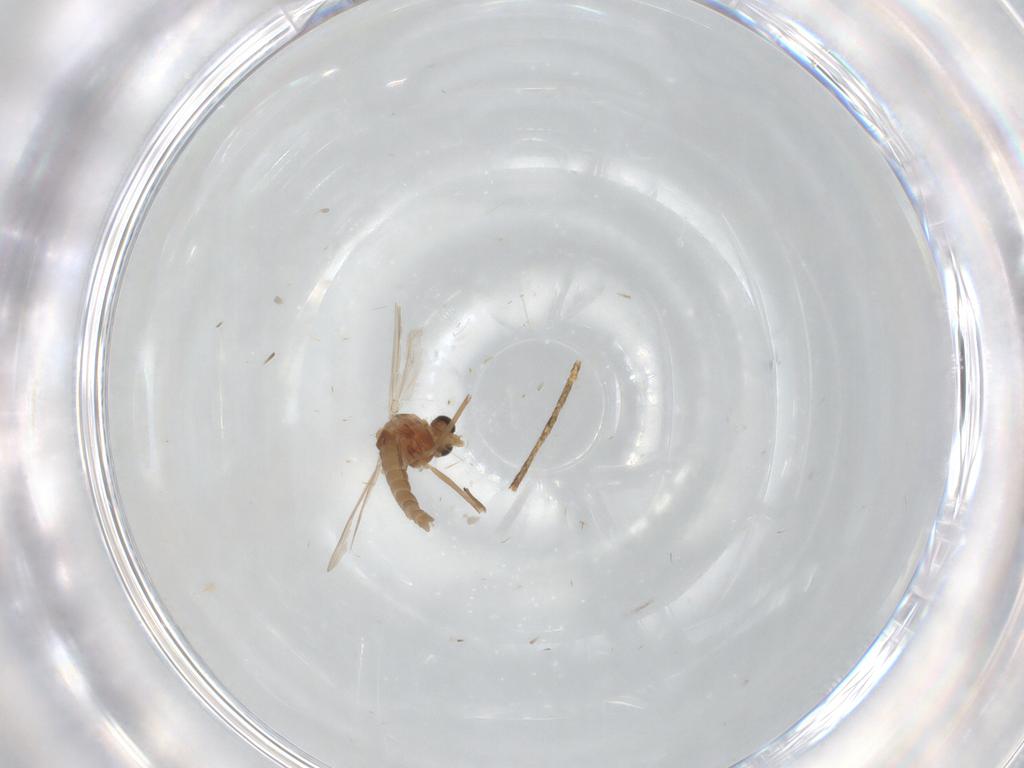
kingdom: Animalia
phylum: Arthropoda
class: Insecta
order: Diptera
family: Chironomidae
